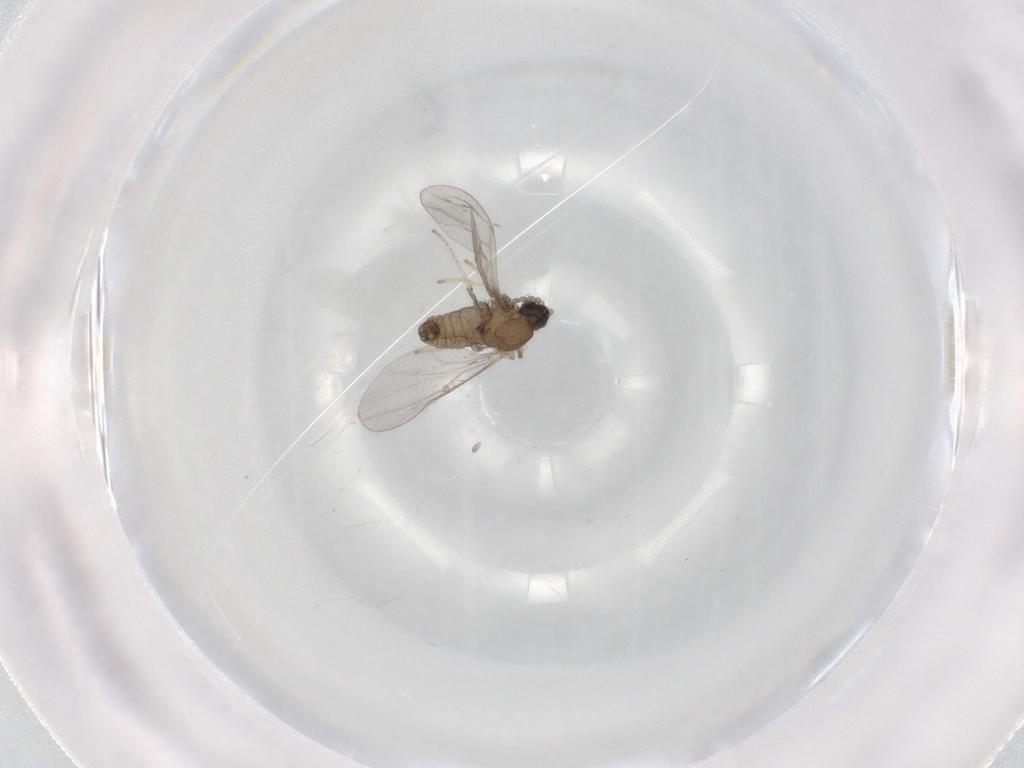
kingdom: Animalia
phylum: Arthropoda
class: Insecta
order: Diptera
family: Cecidomyiidae
